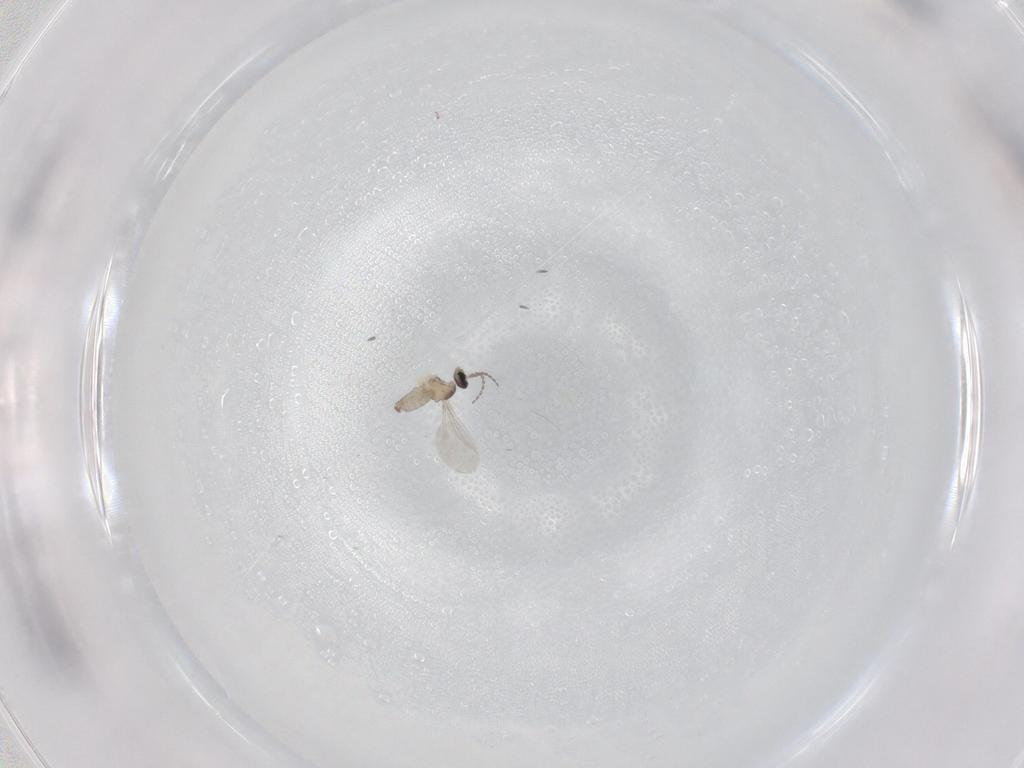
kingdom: Animalia
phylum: Arthropoda
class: Insecta
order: Diptera
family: Cecidomyiidae
